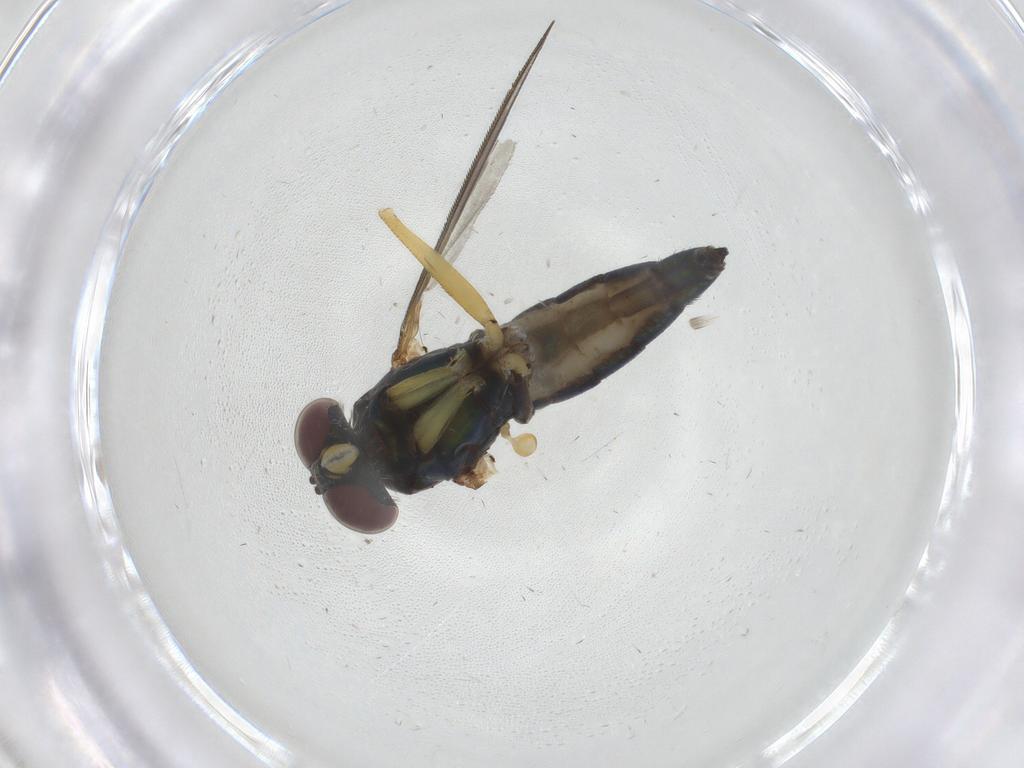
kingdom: Animalia
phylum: Arthropoda
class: Insecta
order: Diptera
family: Dolichopodidae
